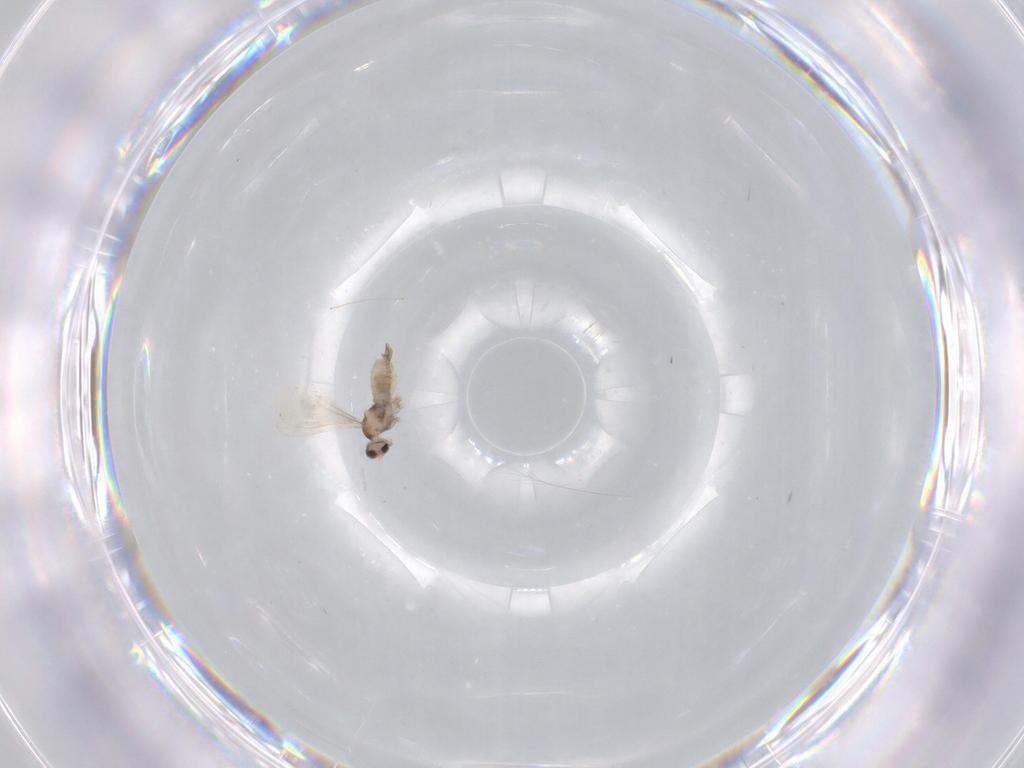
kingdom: Animalia
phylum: Arthropoda
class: Insecta
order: Diptera
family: Cecidomyiidae
